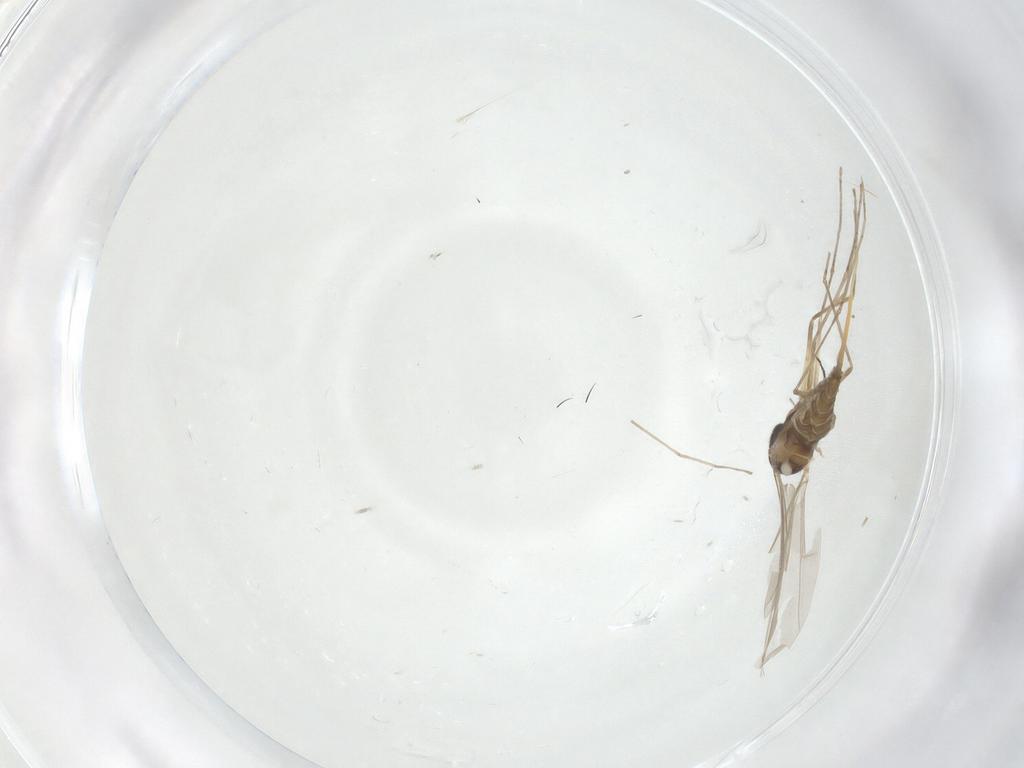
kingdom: Animalia
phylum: Arthropoda
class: Insecta
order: Diptera
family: Cecidomyiidae
